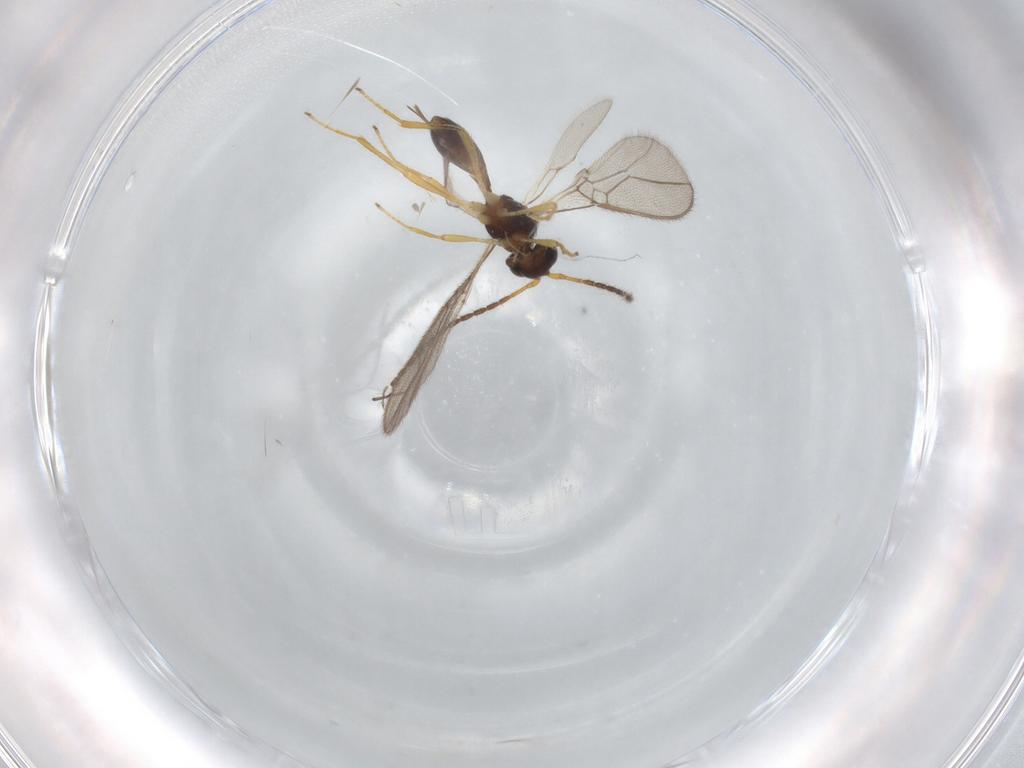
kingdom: Animalia
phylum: Arthropoda
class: Insecta
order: Hymenoptera
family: Braconidae
